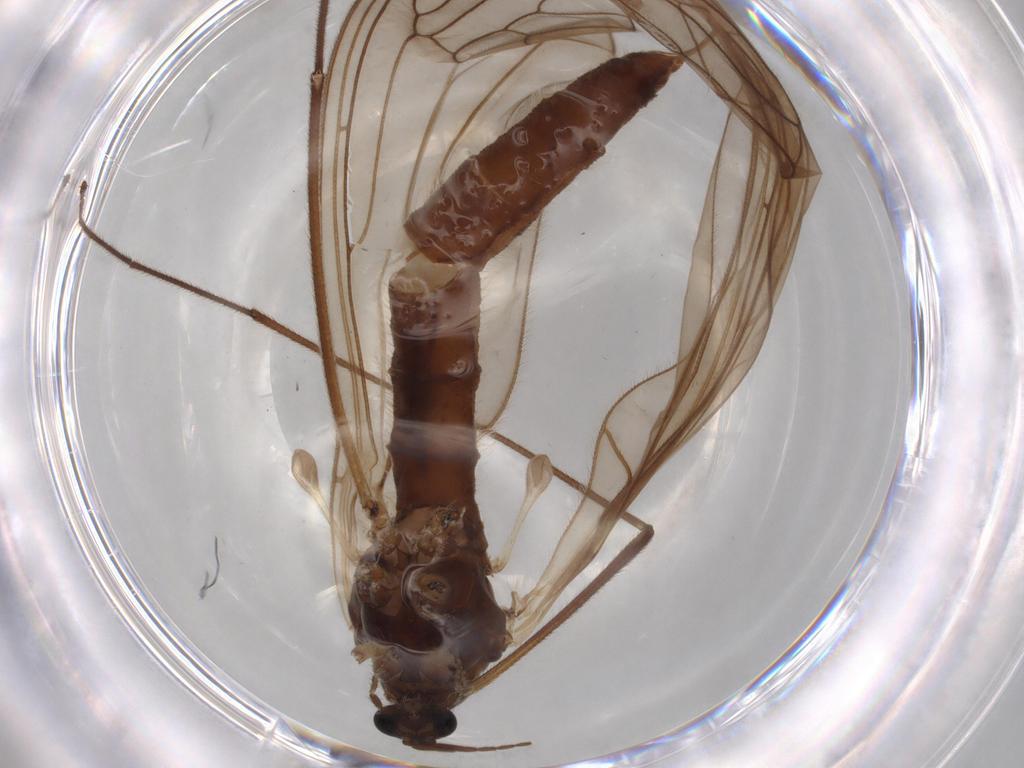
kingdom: Animalia
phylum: Arthropoda
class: Insecta
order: Diptera
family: Trichoceridae
